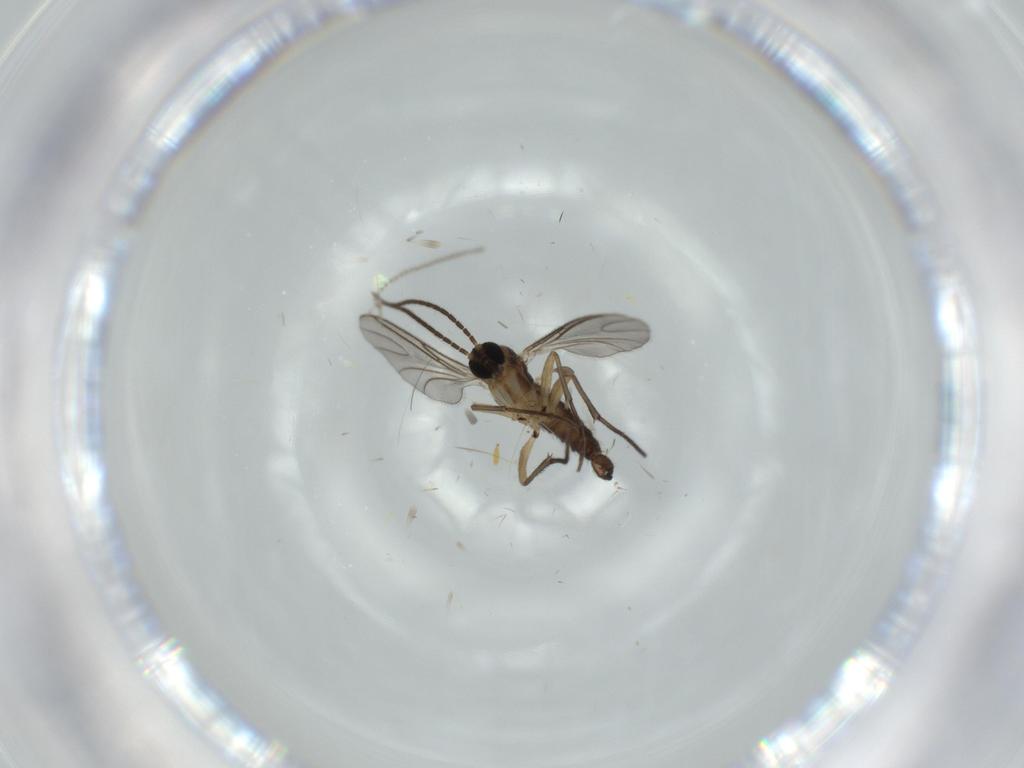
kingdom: Animalia
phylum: Arthropoda
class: Insecta
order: Diptera
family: Sciaridae
